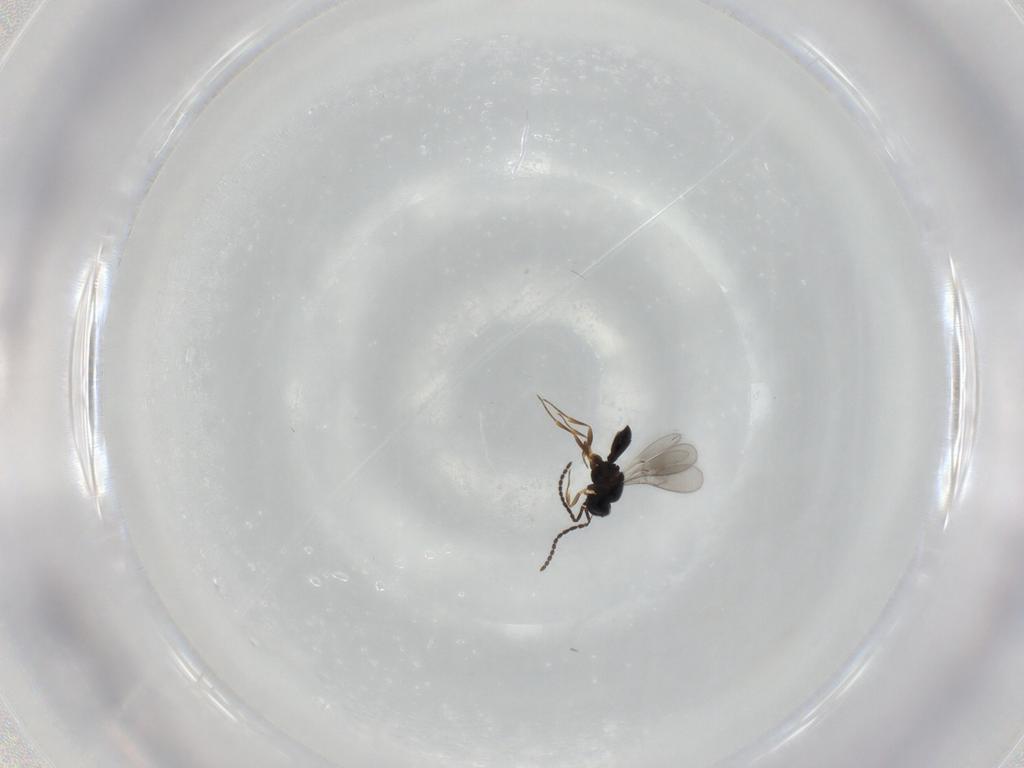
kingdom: Animalia
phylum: Arthropoda
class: Insecta
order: Hymenoptera
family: Scelionidae
